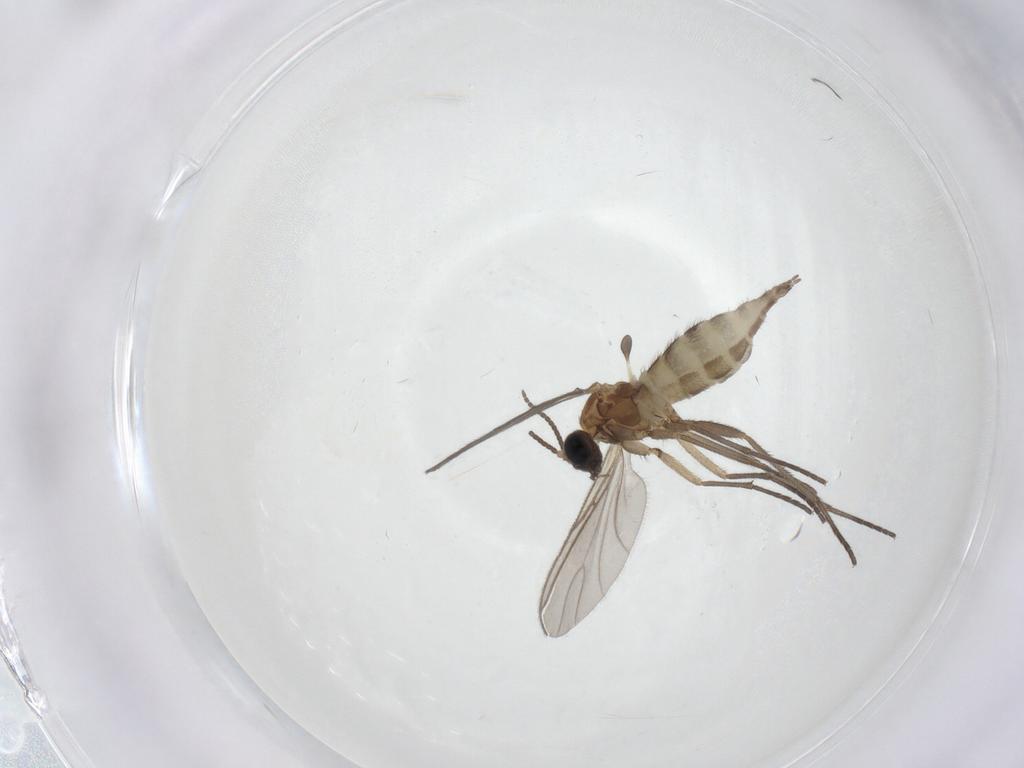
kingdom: Animalia
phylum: Arthropoda
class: Insecta
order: Diptera
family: Sciaridae
